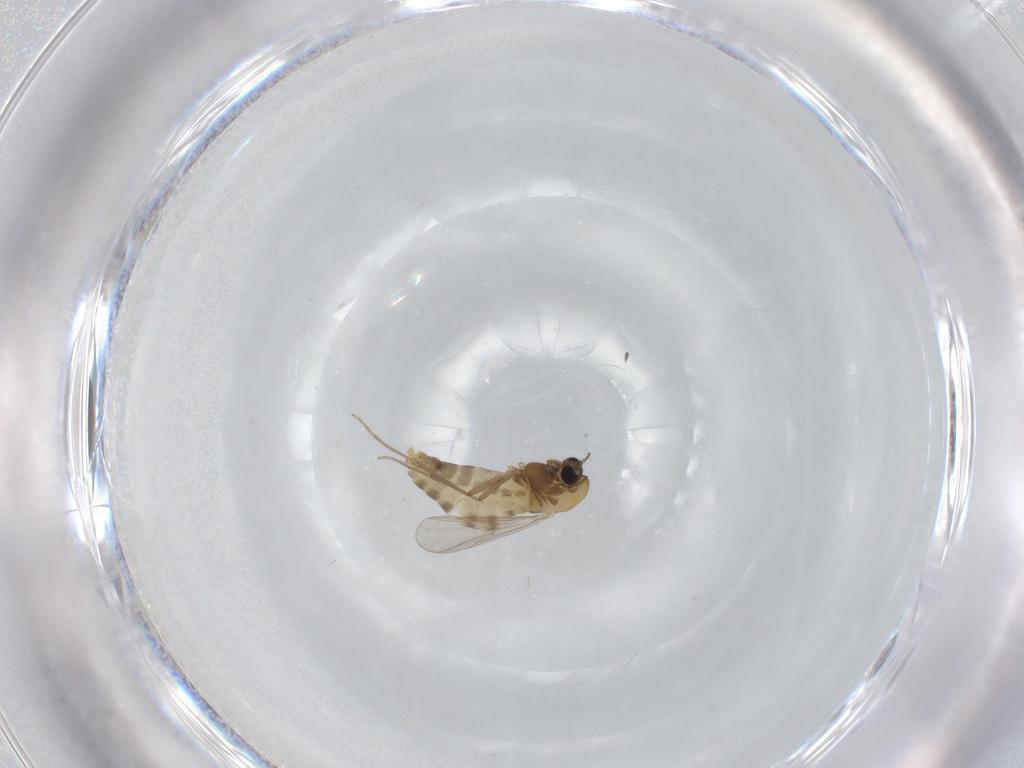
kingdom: Animalia
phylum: Arthropoda
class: Insecta
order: Diptera
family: Chironomidae
